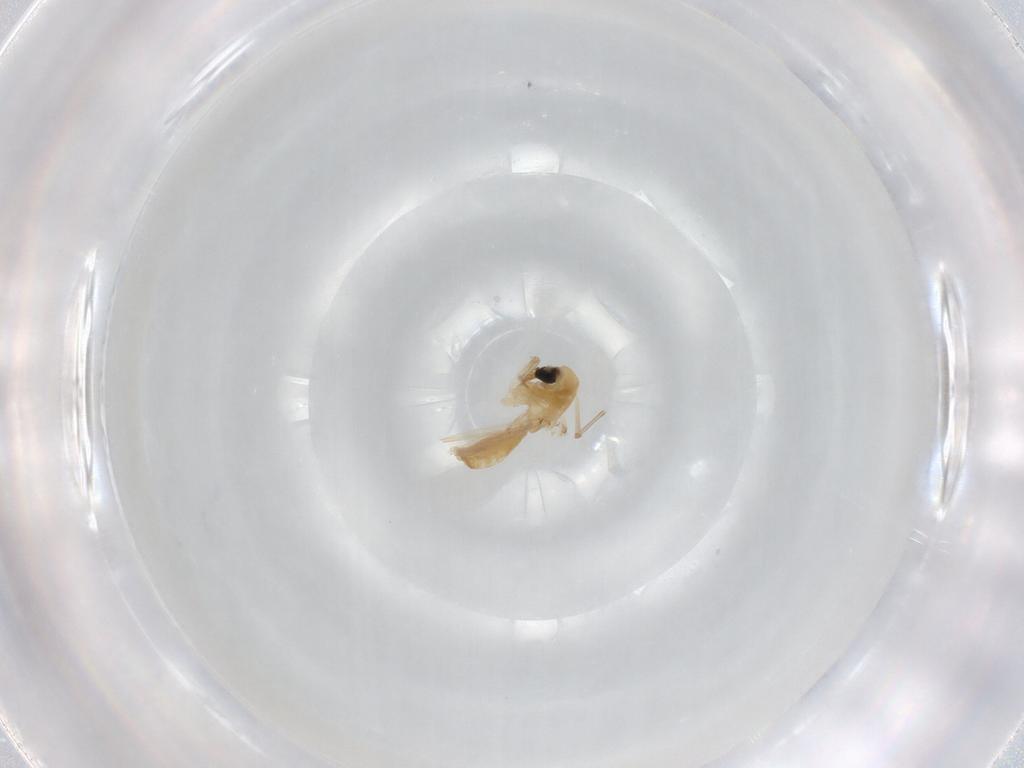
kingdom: Animalia
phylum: Arthropoda
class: Insecta
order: Diptera
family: Chironomidae
